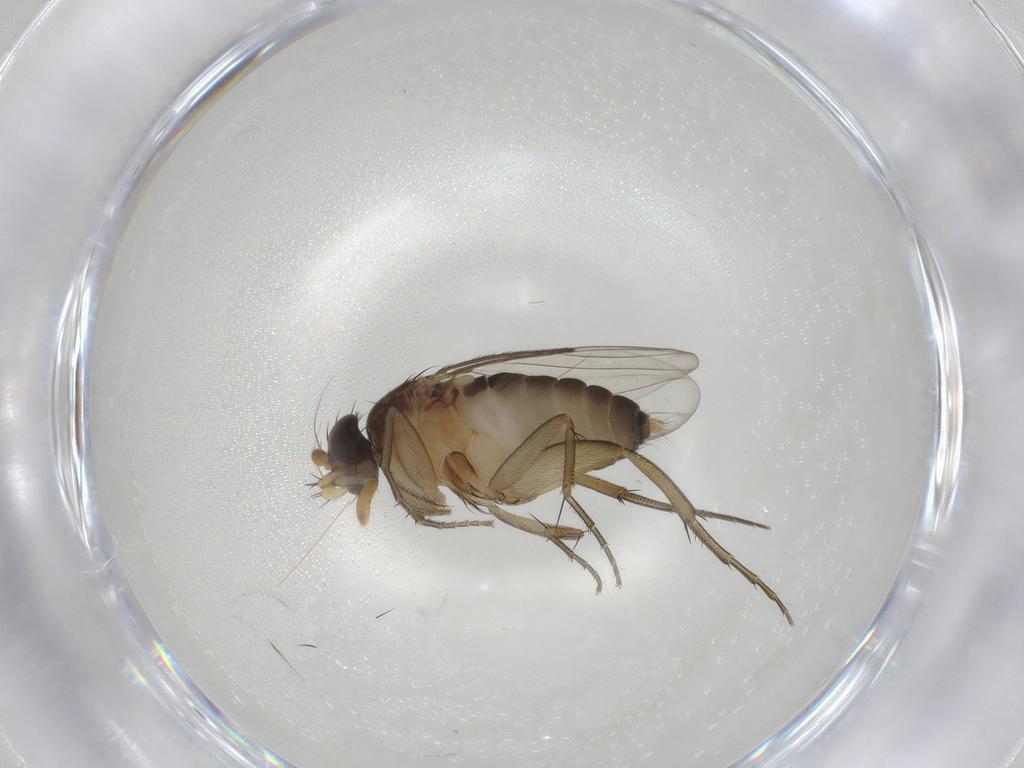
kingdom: Animalia
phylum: Arthropoda
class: Insecta
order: Diptera
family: Phoridae
